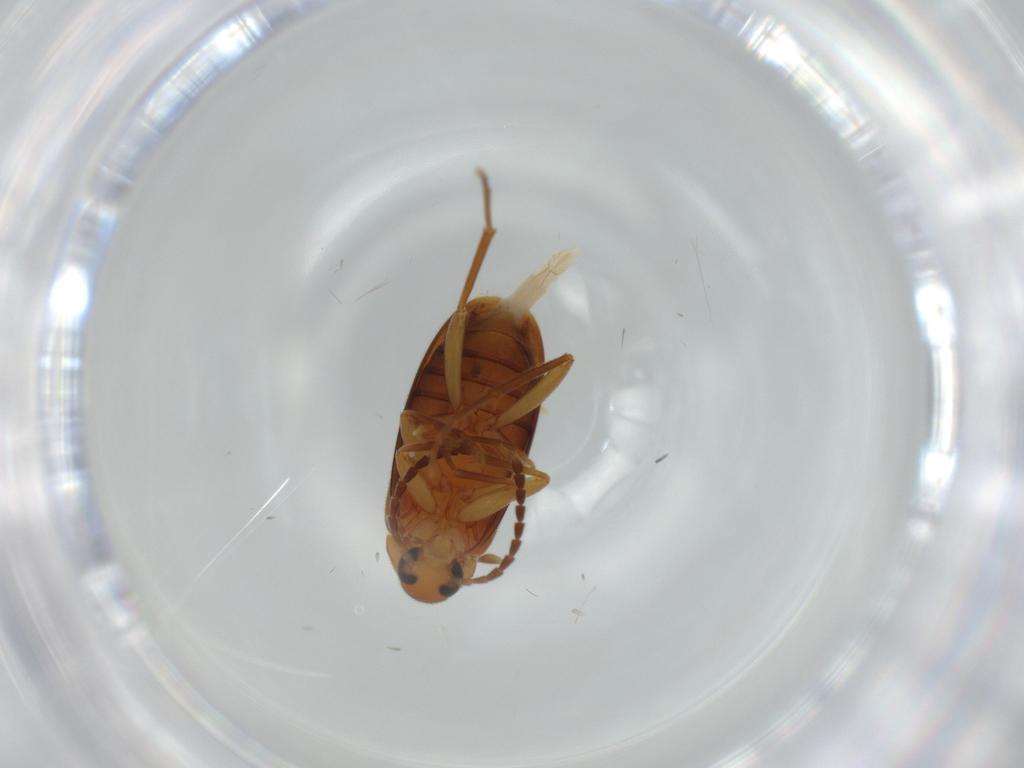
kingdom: Animalia
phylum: Arthropoda
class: Insecta
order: Coleoptera
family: Scraptiidae
